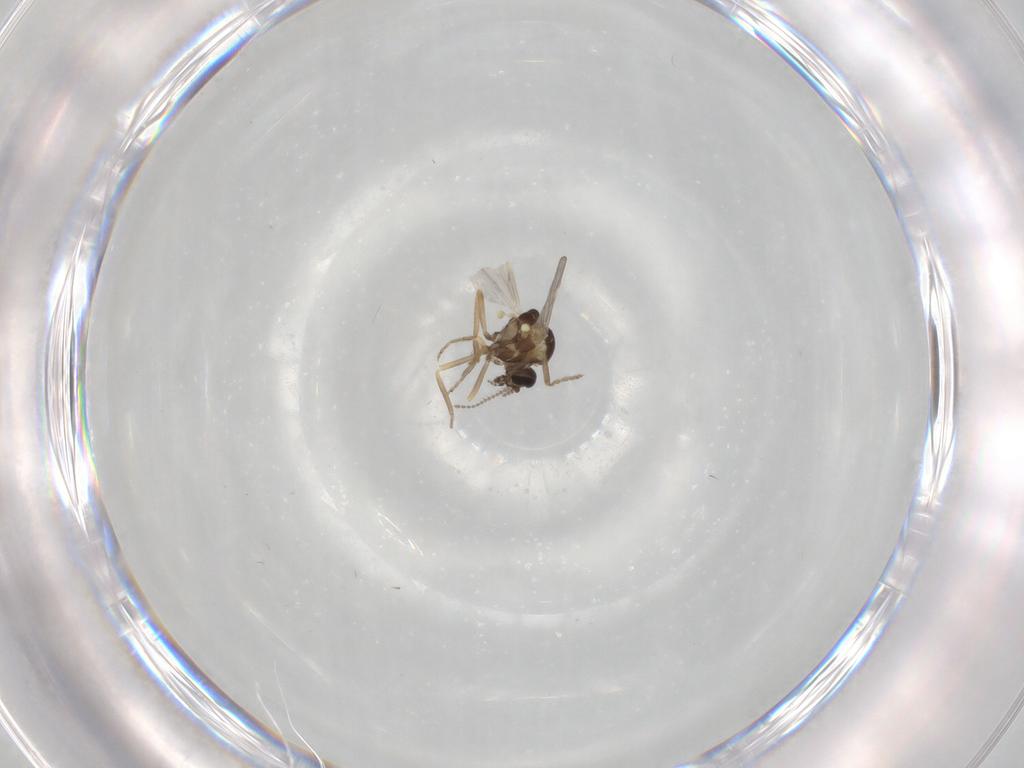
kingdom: Animalia
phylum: Arthropoda
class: Insecta
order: Diptera
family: Ceratopogonidae
